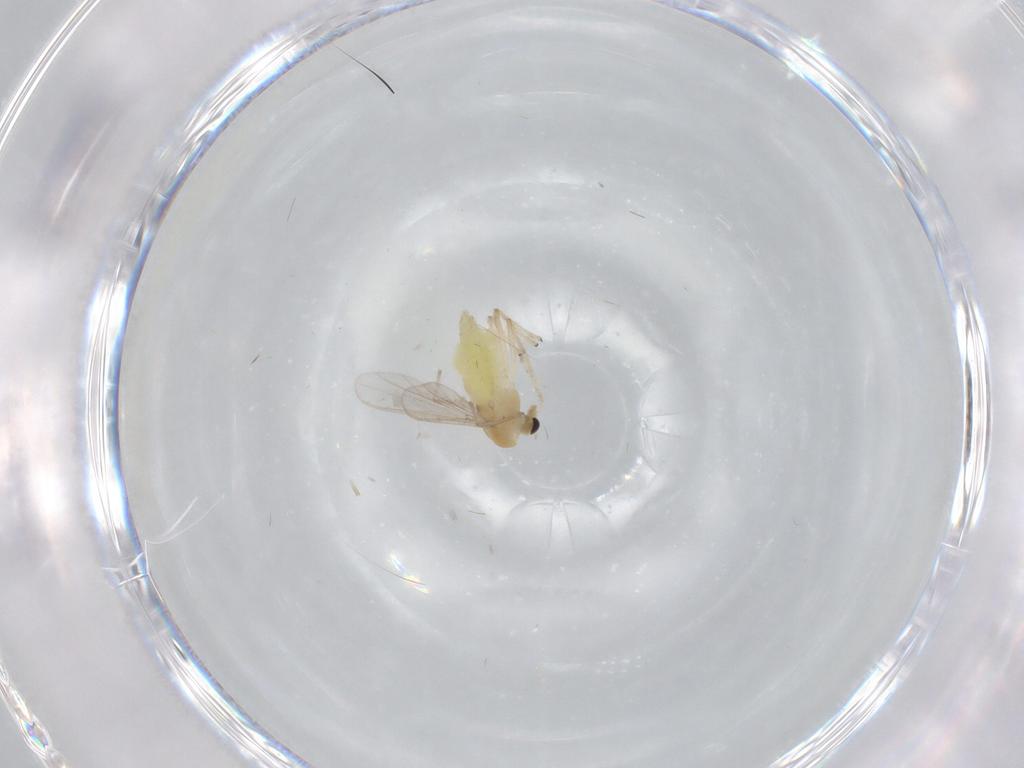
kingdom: Animalia
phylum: Arthropoda
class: Insecta
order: Diptera
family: Chironomidae
